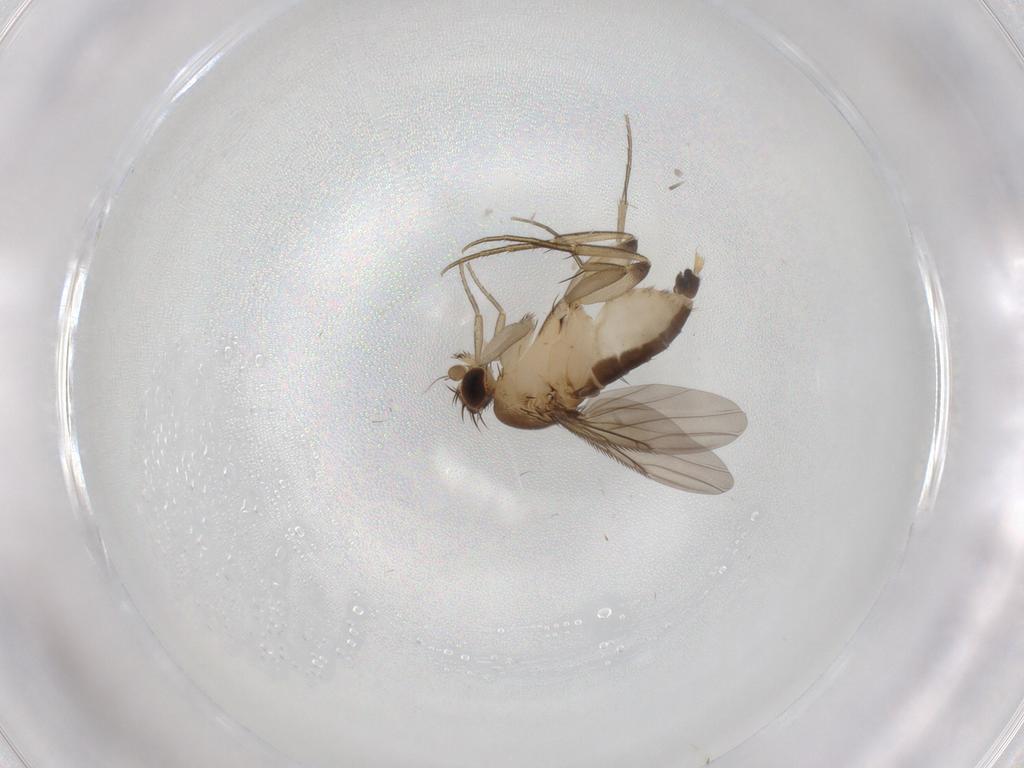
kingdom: Animalia
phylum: Arthropoda
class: Insecta
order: Diptera
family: Phoridae
